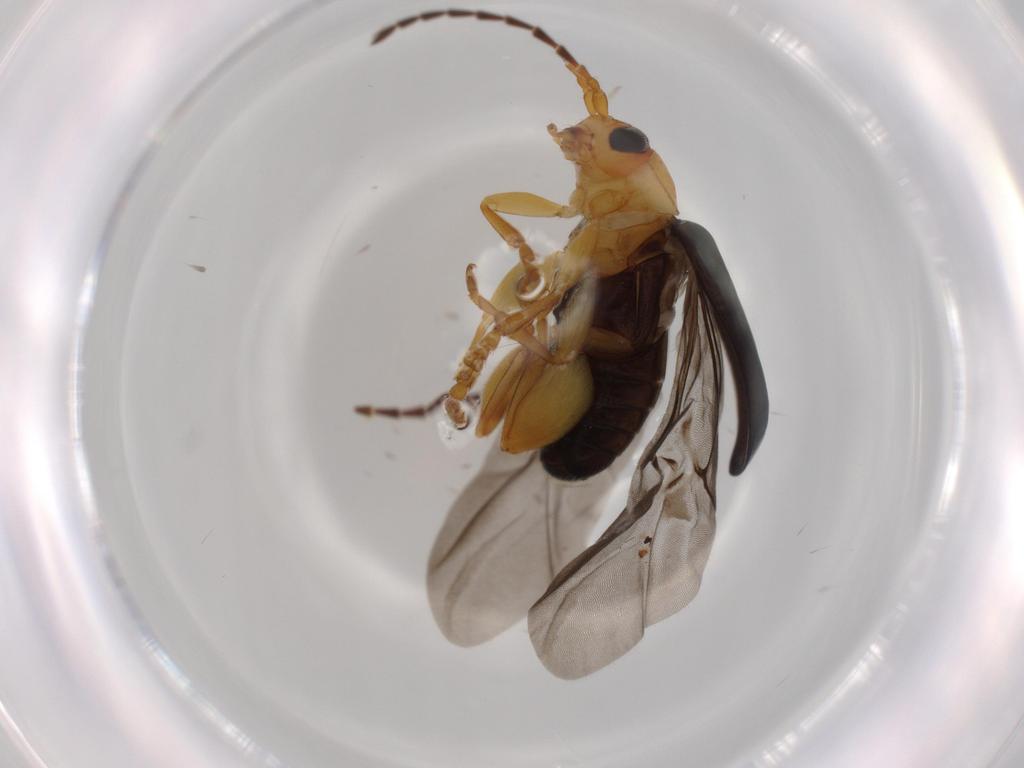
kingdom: Animalia
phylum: Arthropoda
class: Insecta
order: Coleoptera
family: Chrysomelidae
